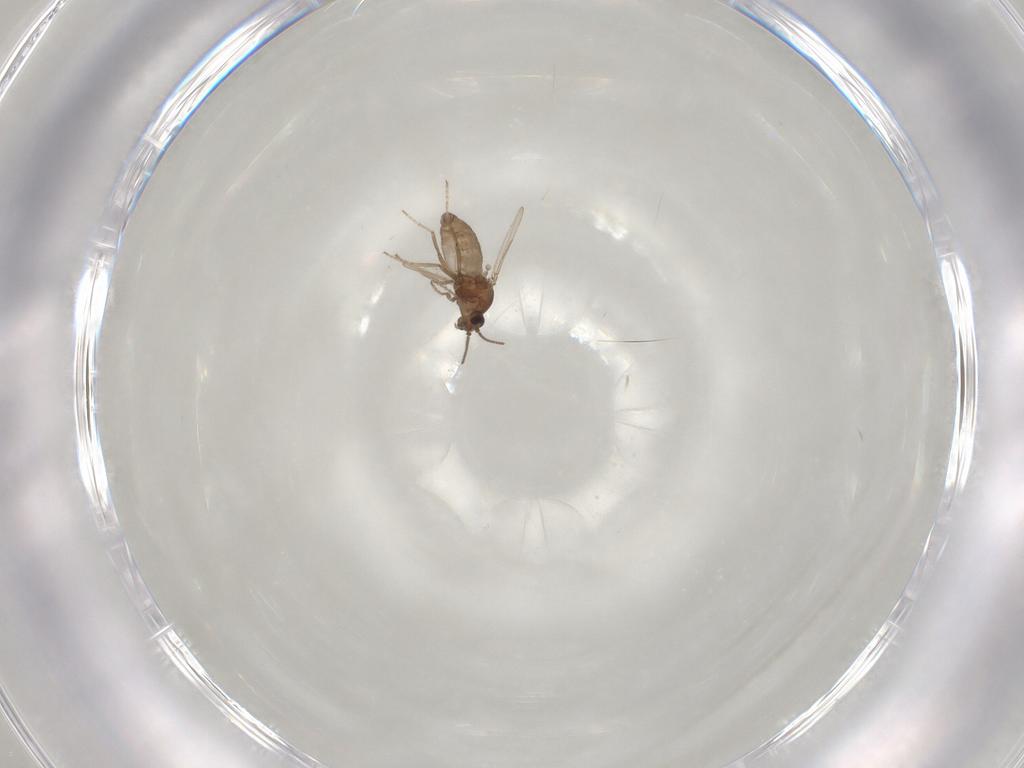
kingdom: Animalia
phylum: Arthropoda
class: Insecta
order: Diptera
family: Ceratopogonidae
